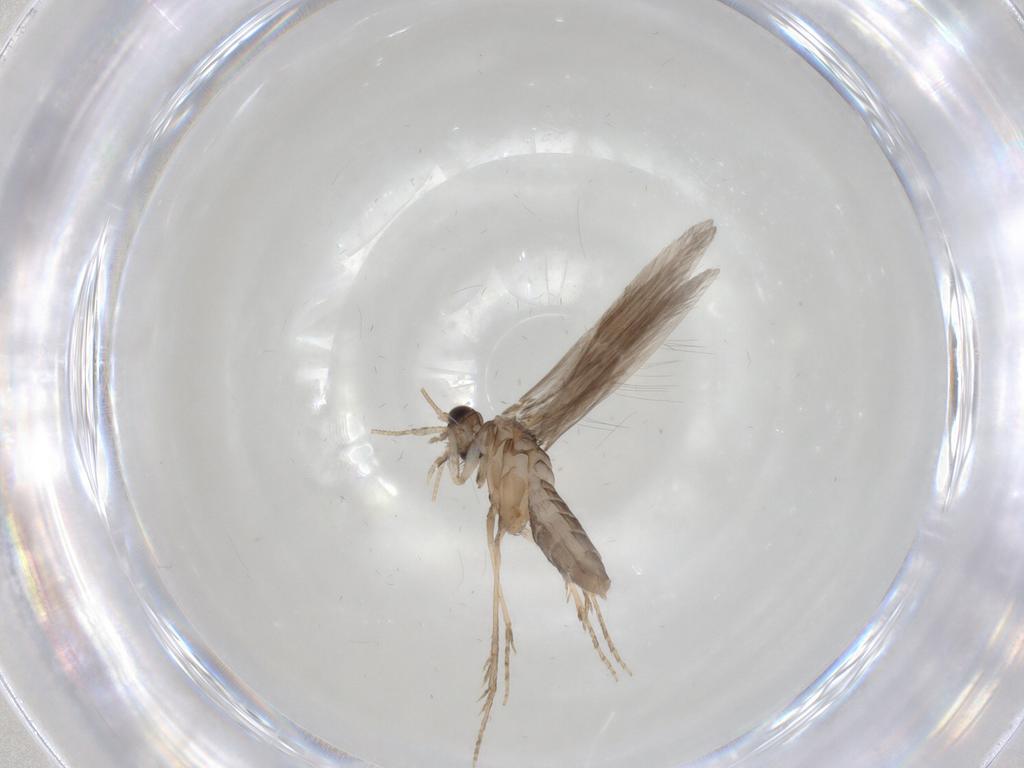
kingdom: Animalia
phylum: Arthropoda
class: Insecta
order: Trichoptera
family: Hydroptilidae
